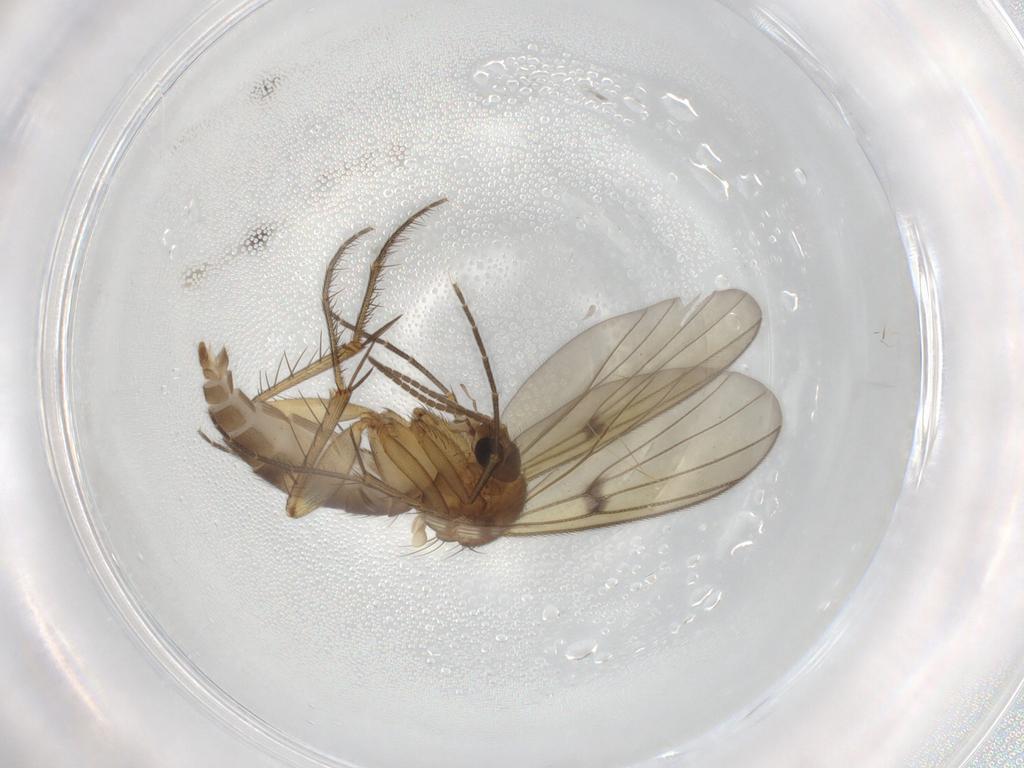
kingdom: Animalia
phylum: Arthropoda
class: Insecta
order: Diptera
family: Mycetophilidae
